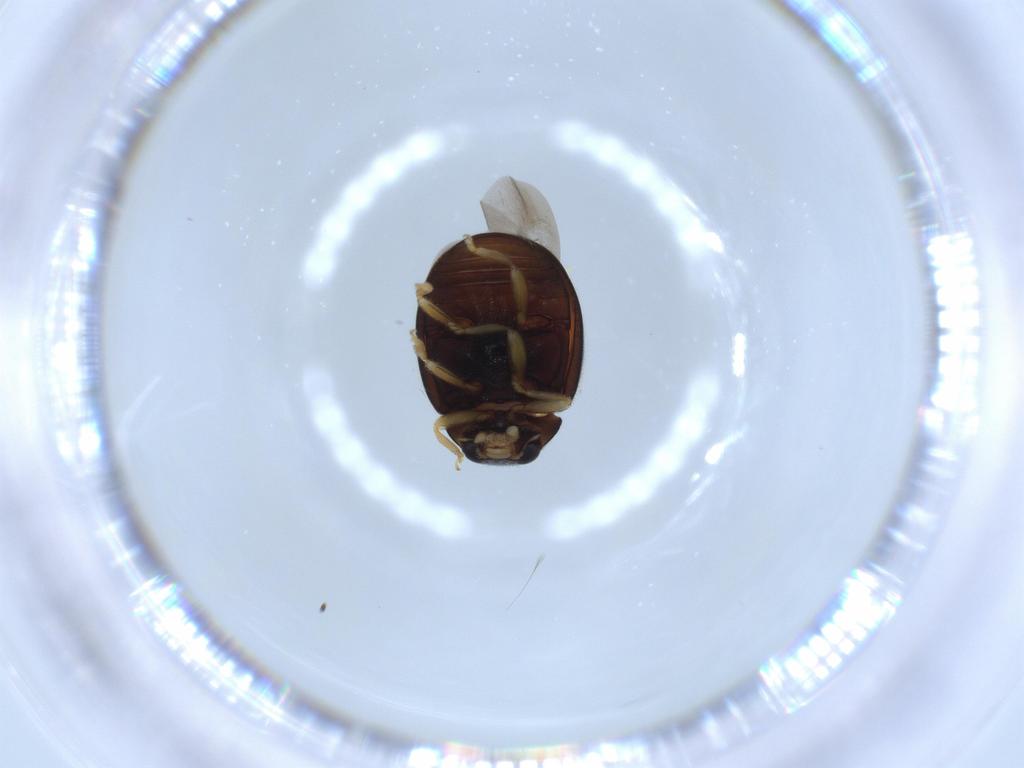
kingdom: Animalia
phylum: Arthropoda
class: Insecta
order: Coleoptera
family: Coccinellidae
